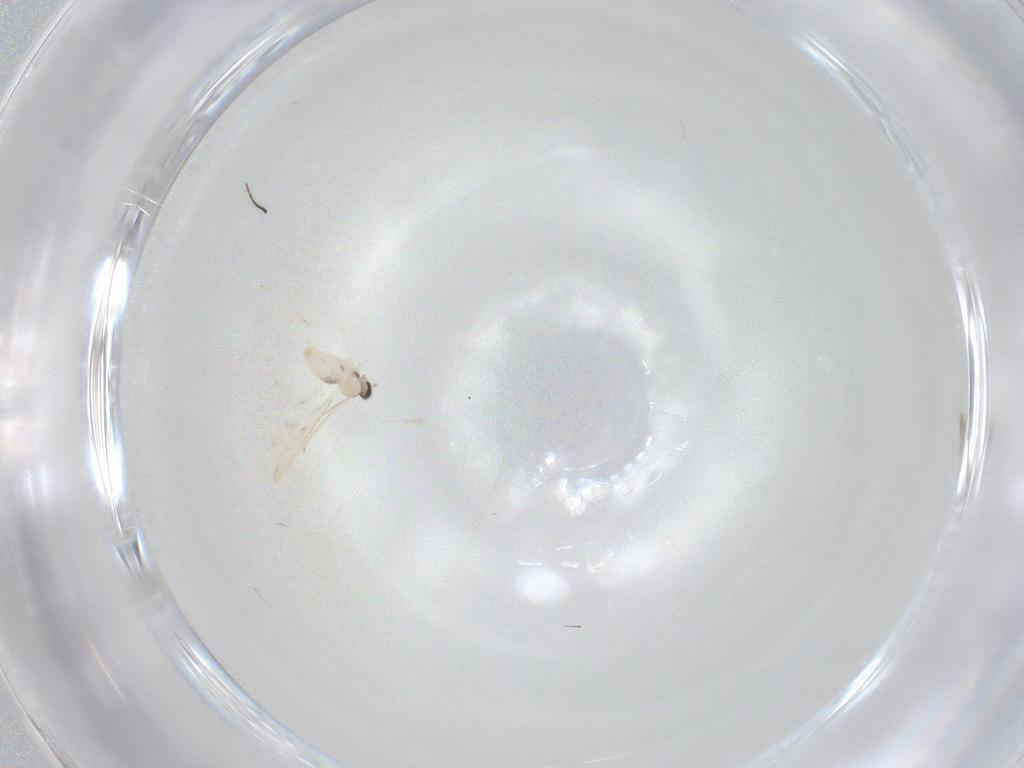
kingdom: Animalia
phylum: Arthropoda
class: Insecta
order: Diptera
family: Cecidomyiidae
